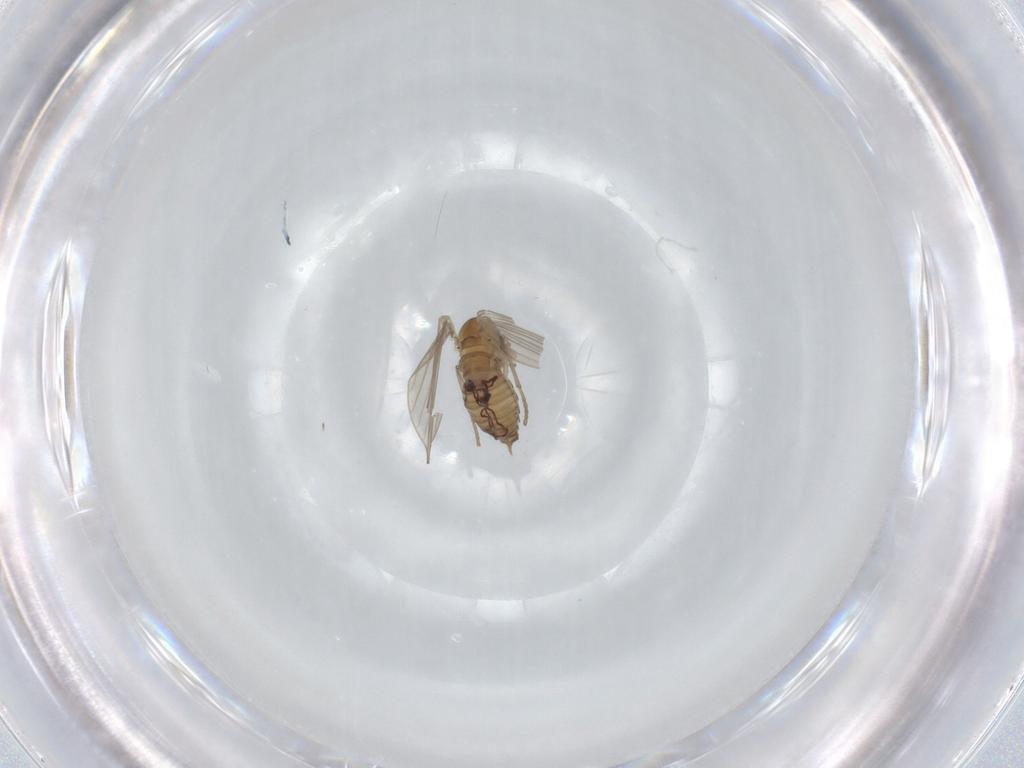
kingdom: Animalia
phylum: Arthropoda
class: Insecta
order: Diptera
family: Psychodidae
